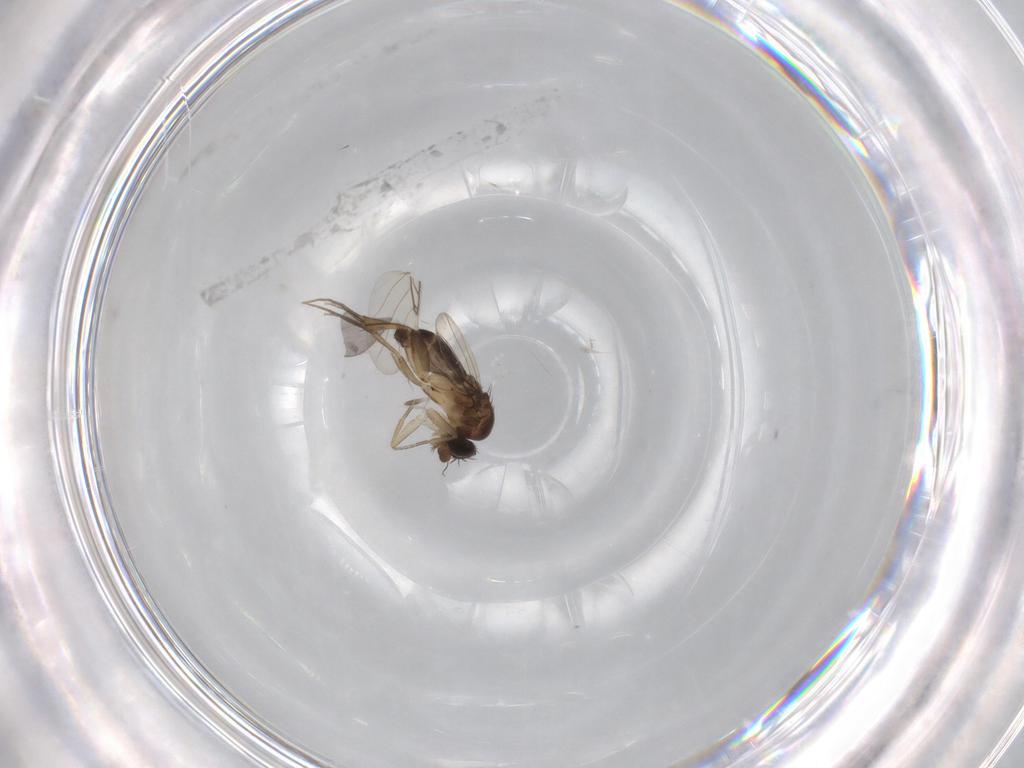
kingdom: Animalia
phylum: Arthropoda
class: Insecta
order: Diptera
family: Phoridae
